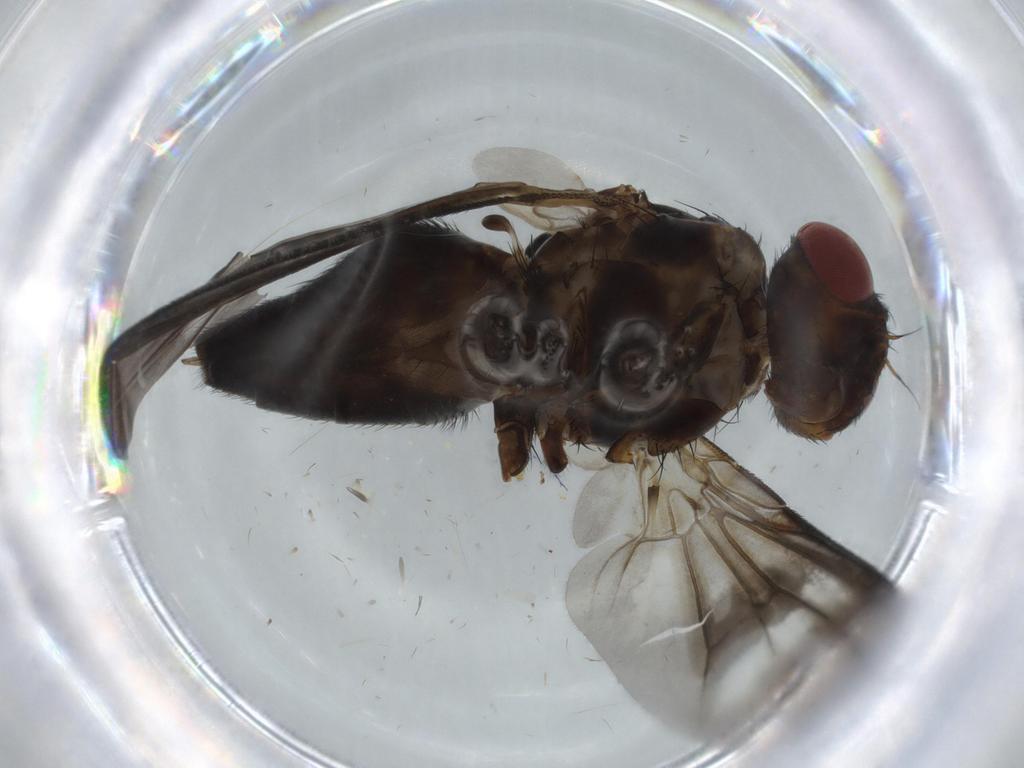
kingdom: Animalia
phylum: Arthropoda
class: Insecta
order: Diptera
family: Calliphoridae
